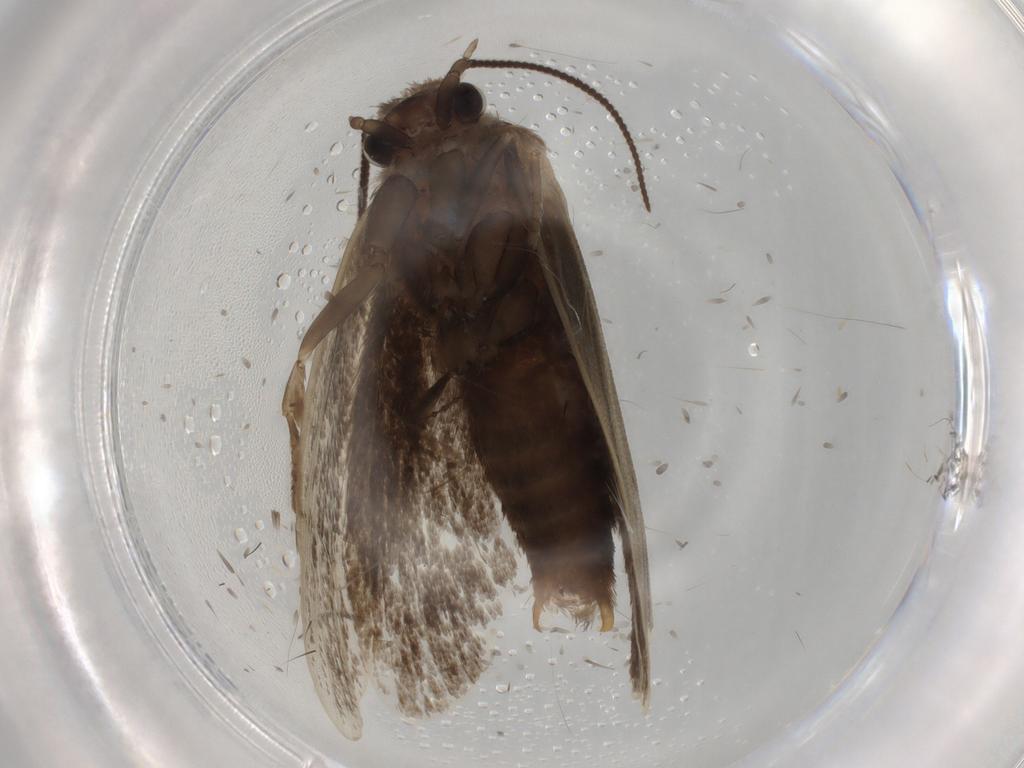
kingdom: Animalia
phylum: Arthropoda
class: Insecta
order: Lepidoptera
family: Tineidae
